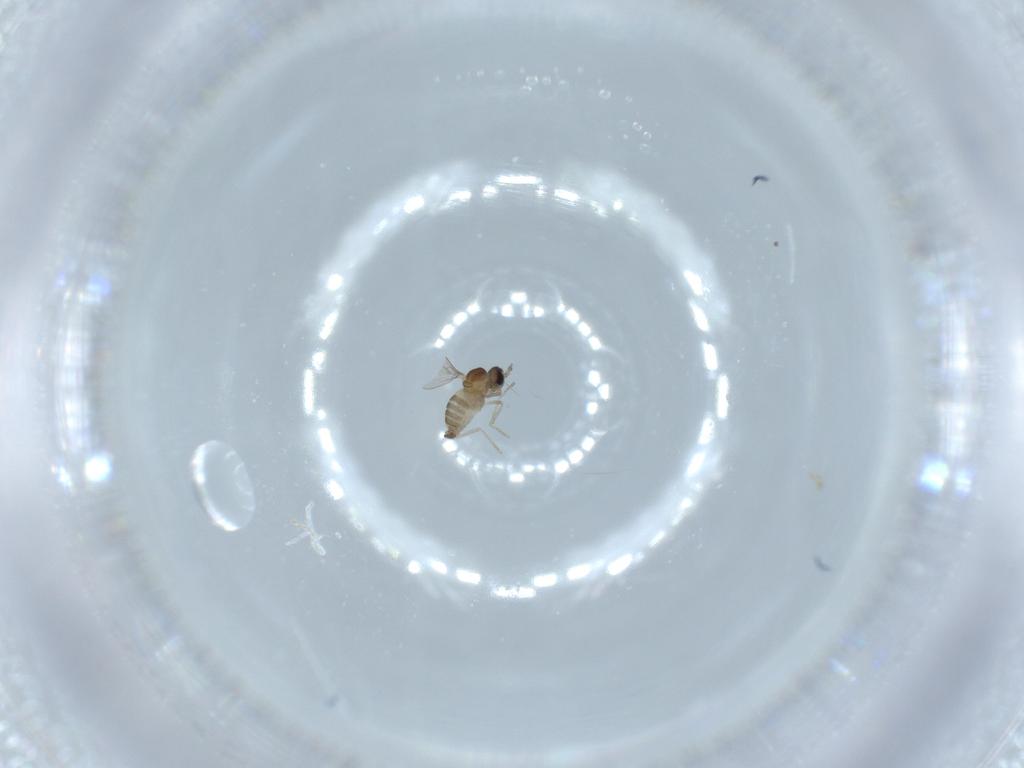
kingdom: Animalia
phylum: Arthropoda
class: Insecta
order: Diptera
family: Cecidomyiidae
